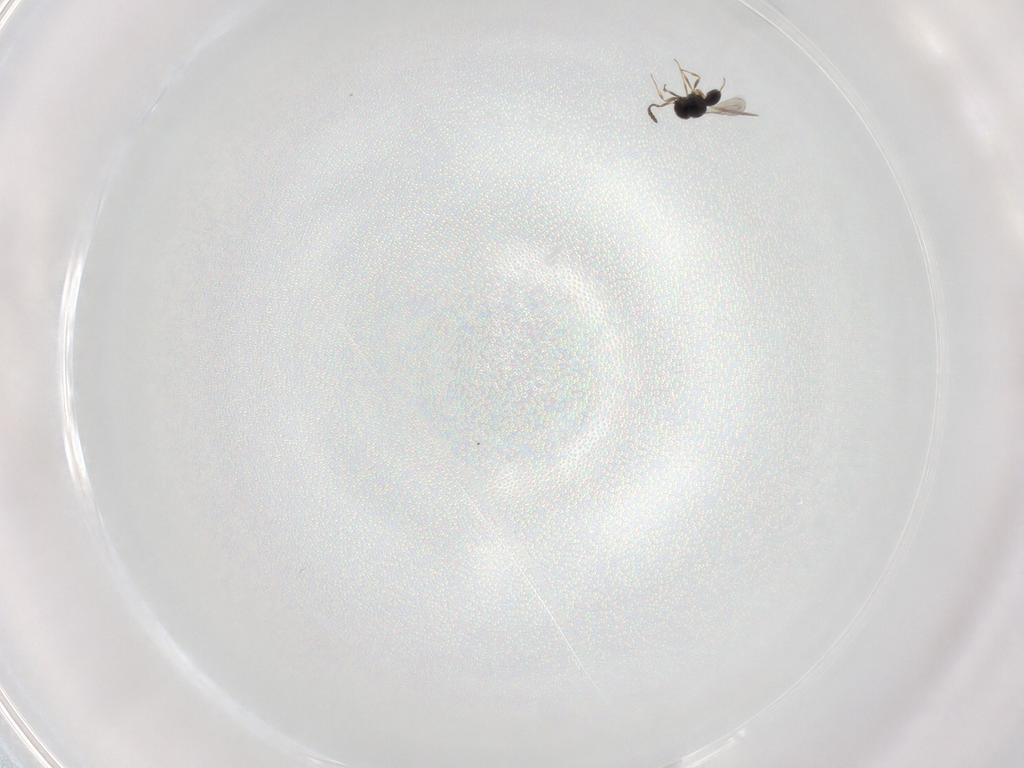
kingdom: Animalia
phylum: Arthropoda
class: Insecta
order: Hymenoptera
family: Scelionidae
